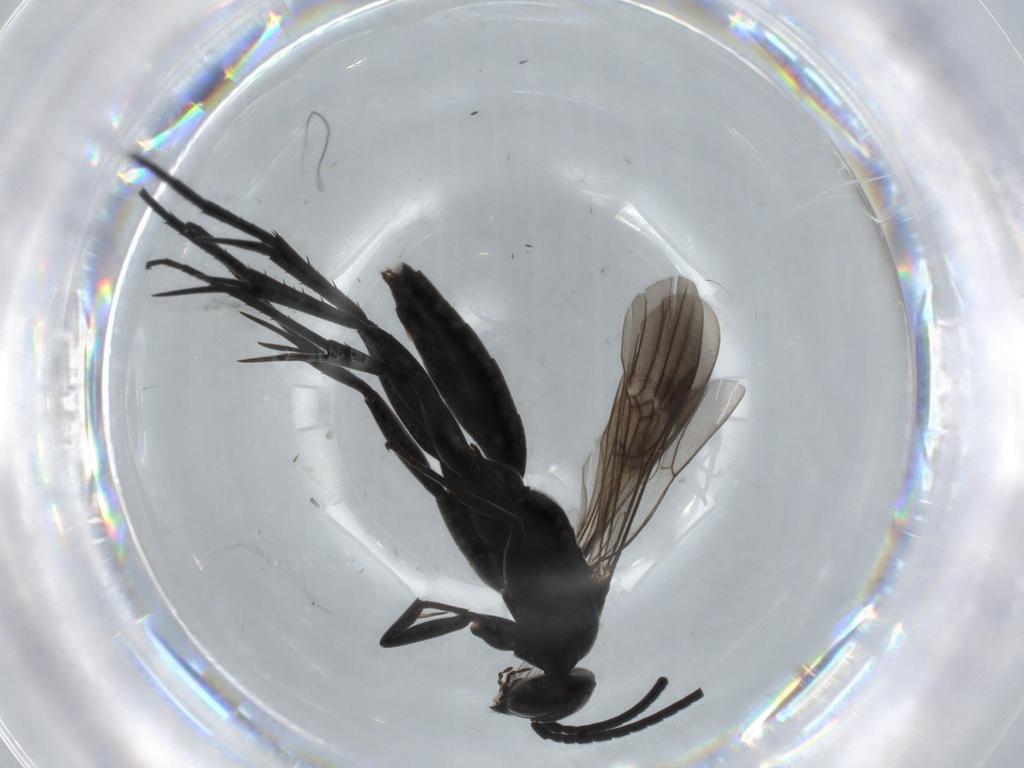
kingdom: Animalia
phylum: Arthropoda
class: Insecta
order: Hymenoptera
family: Pompilidae
